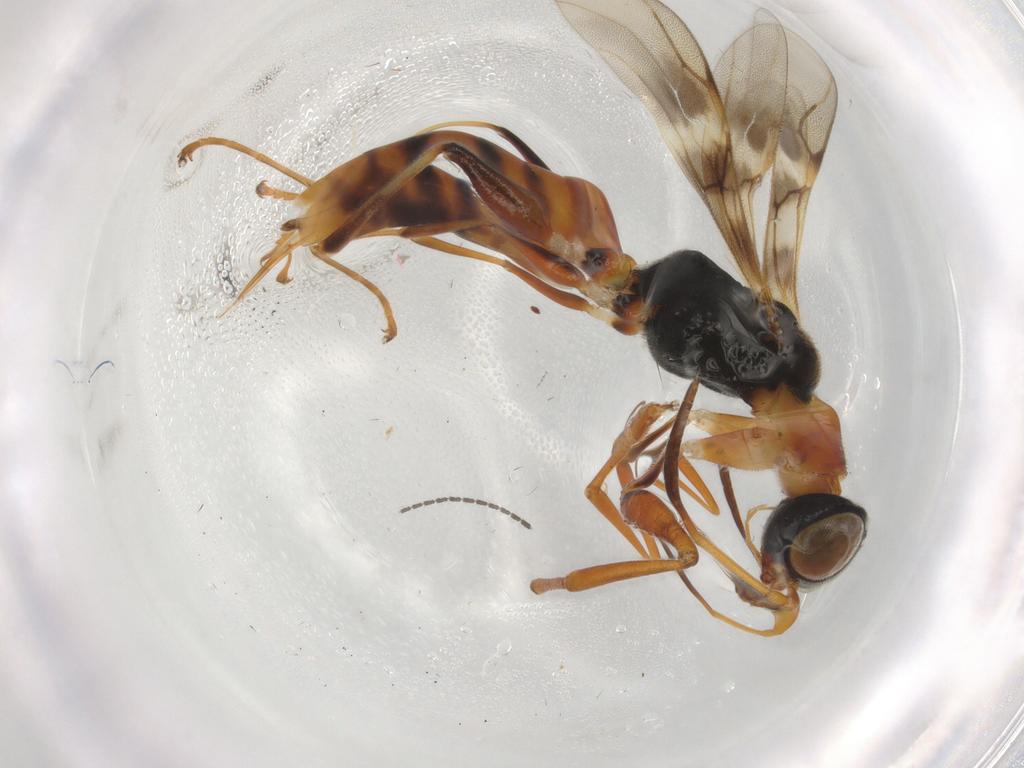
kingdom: Animalia
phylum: Arthropoda
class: Insecta
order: Hymenoptera
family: Dryinidae
